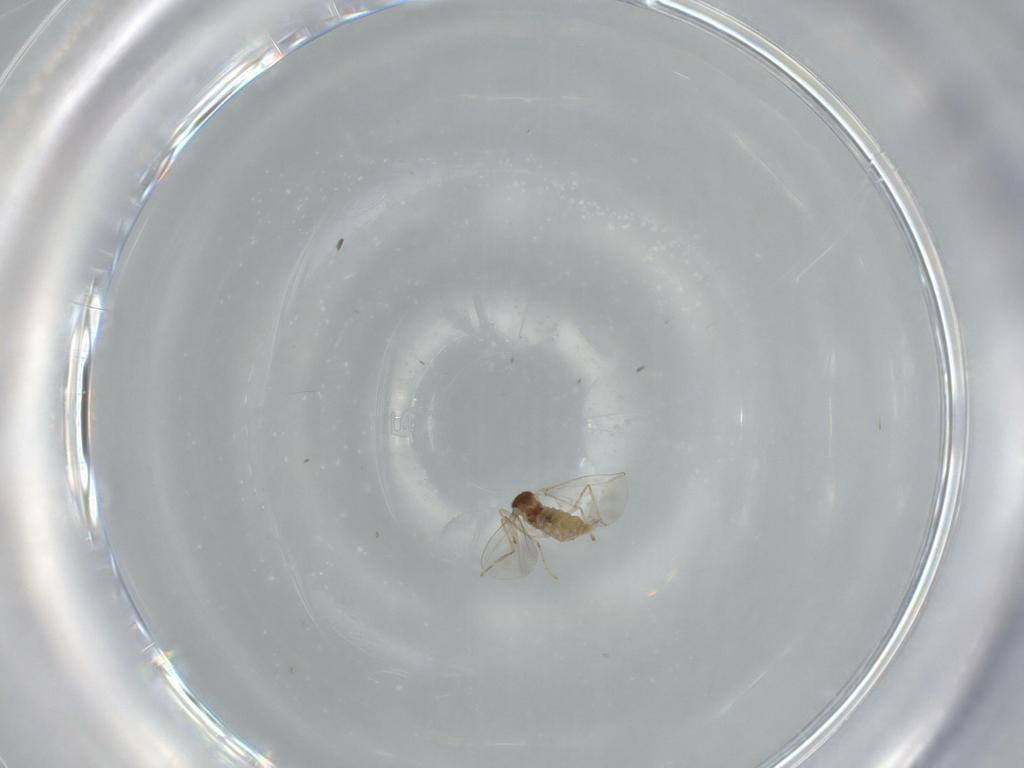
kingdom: Animalia
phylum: Arthropoda
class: Insecta
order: Diptera
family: Cecidomyiidae
